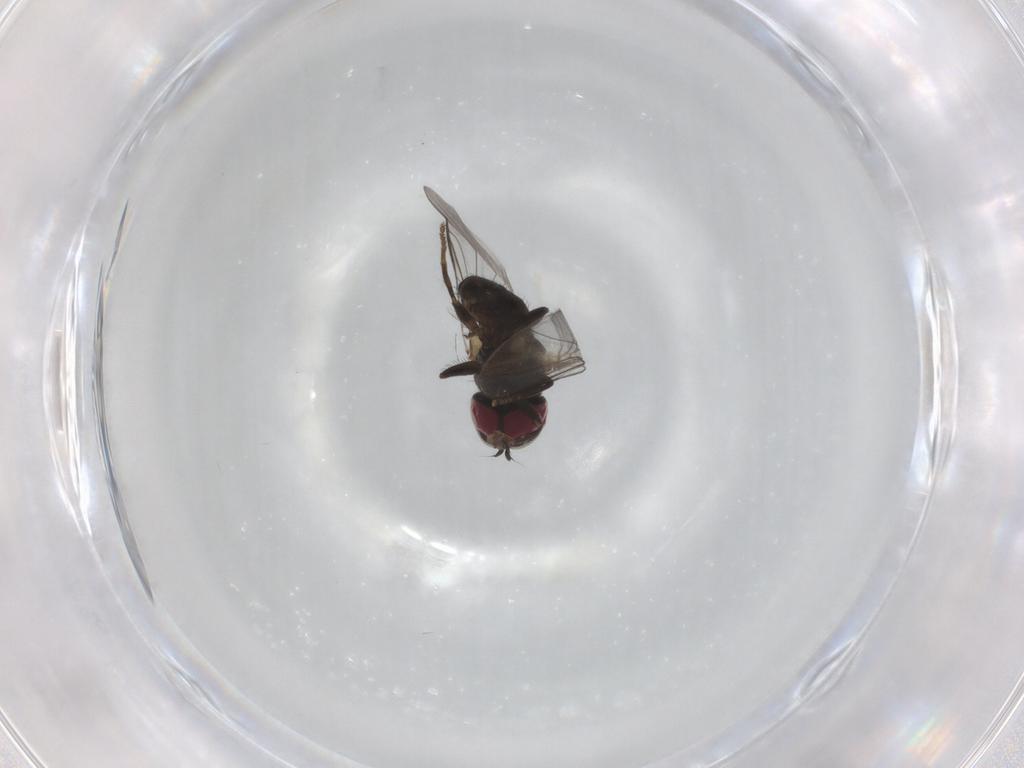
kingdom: Animalia
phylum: Arthropoda
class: Insecta
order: Diptera
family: Pipunculidae
